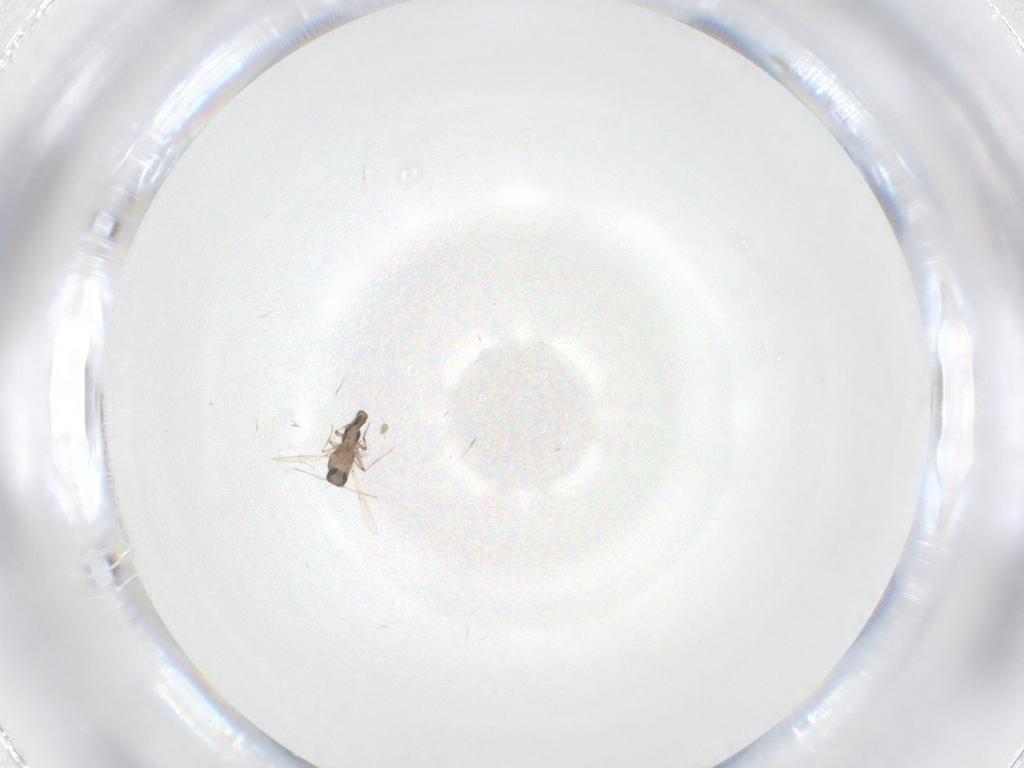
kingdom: Animalia
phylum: Arthropoda
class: Insecta
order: Diptera
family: Ceratopogonidae
